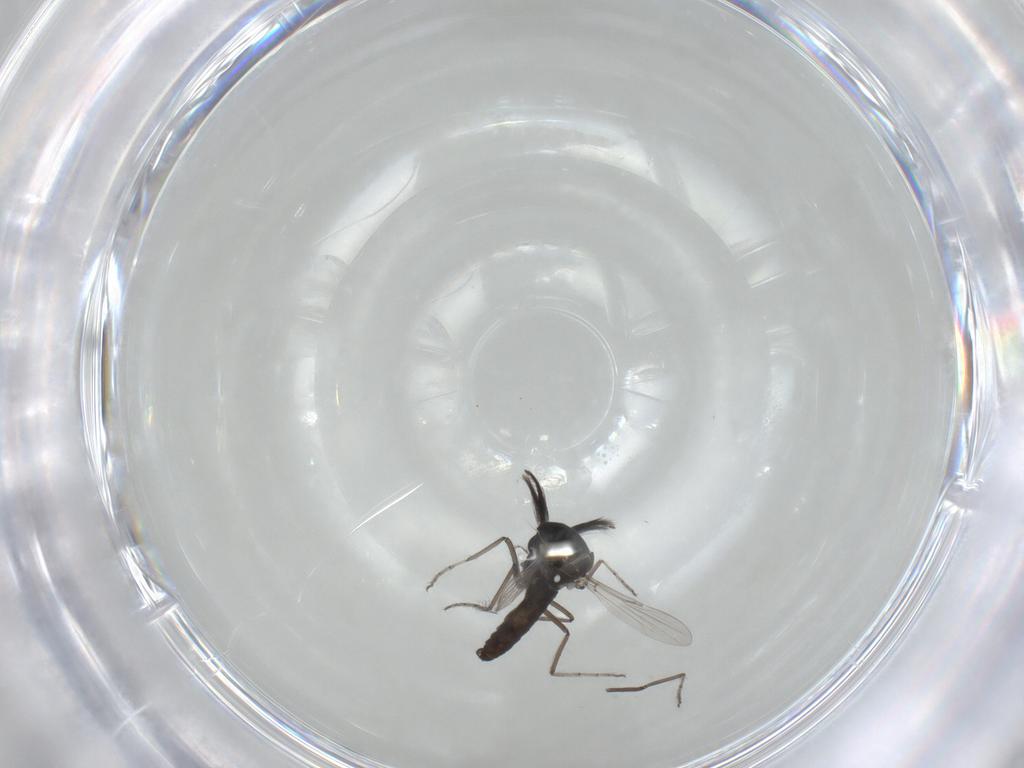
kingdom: Animalia
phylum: Arthropoda
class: Insecta
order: Diptera
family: Ceratopogonidae
